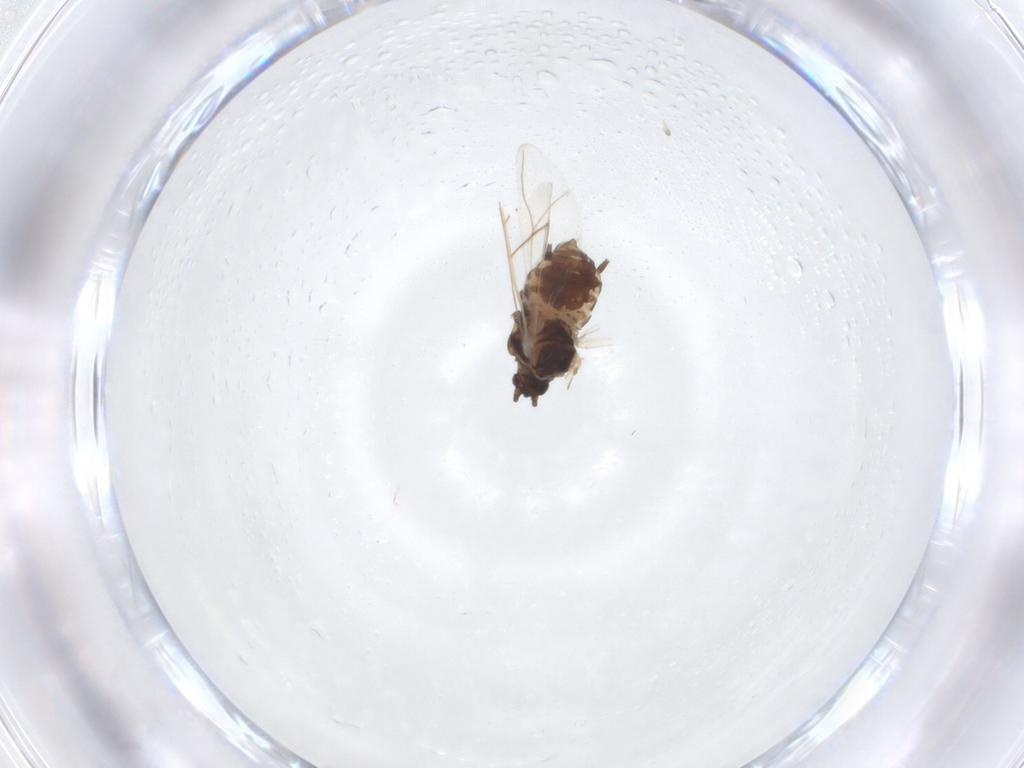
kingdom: Animalia
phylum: Arthropoda
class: Insecta
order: Hemiptera
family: Aphididae
